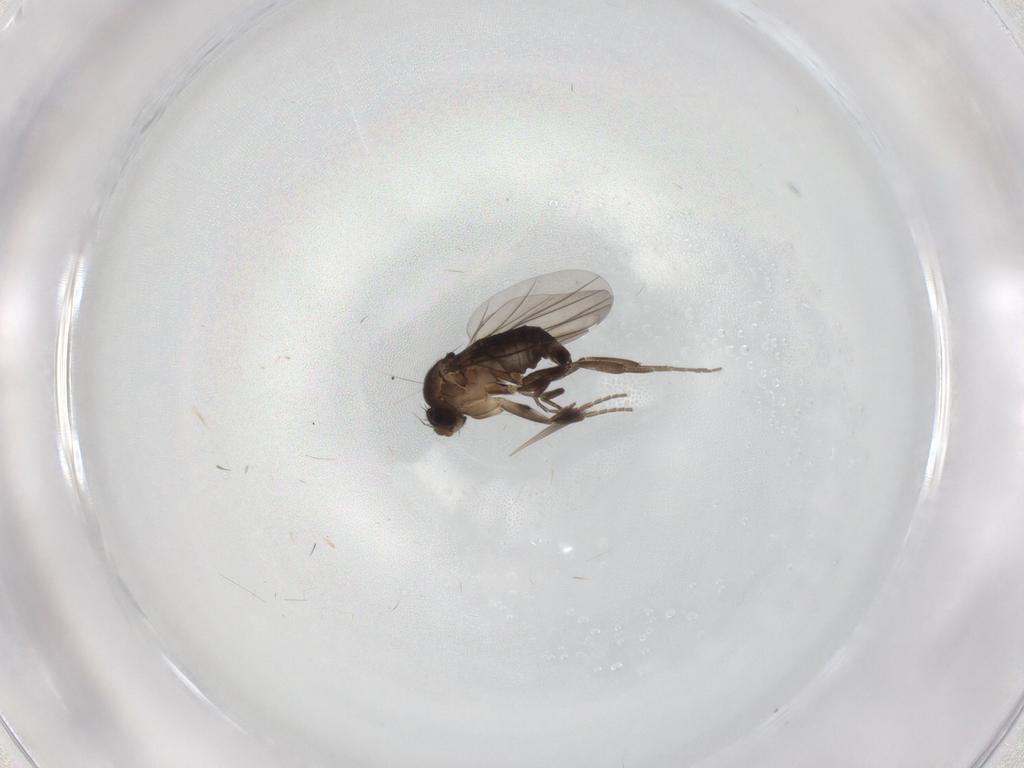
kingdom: Animalia
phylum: Arthropoda
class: Insecta
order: Diptera
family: Phoridae
